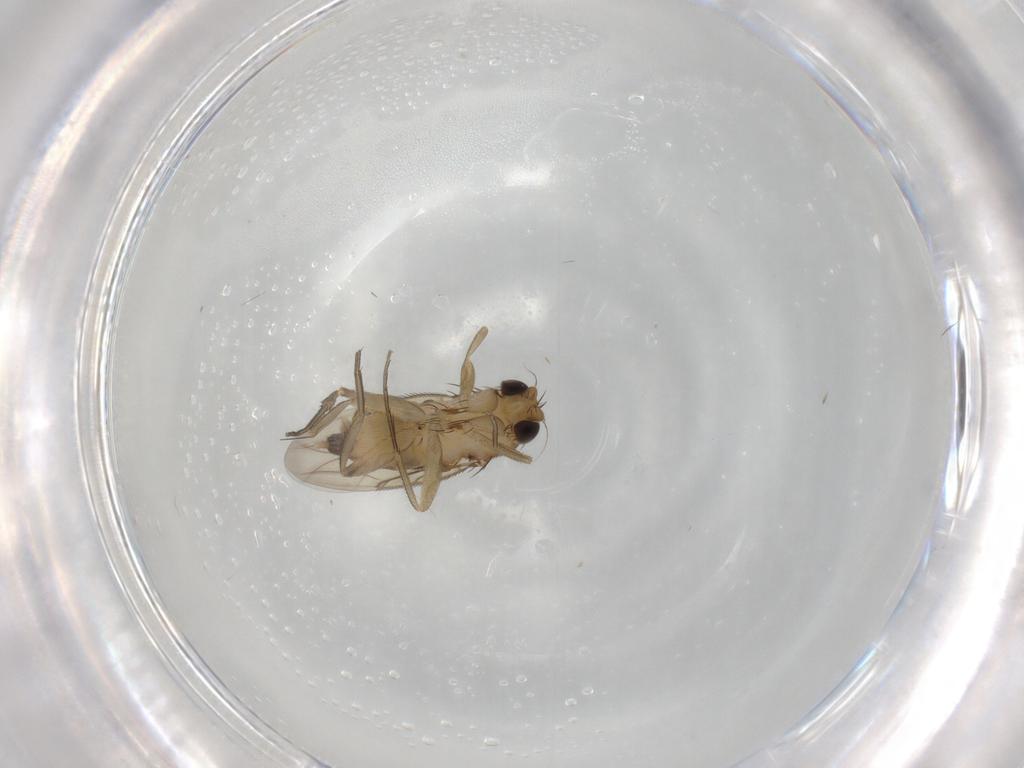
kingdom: Animalia
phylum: Arthropoda
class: Insecta
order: Diptera
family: Phoridae
